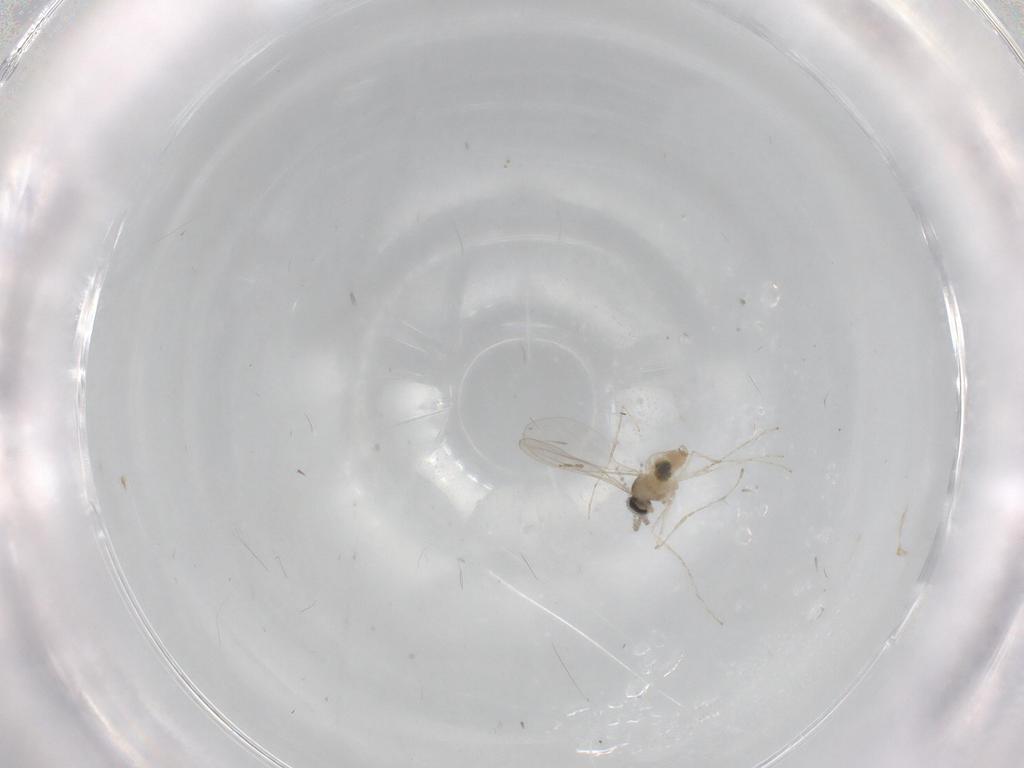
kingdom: Animalia
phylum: Arthropoda
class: Insecta
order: Diptera
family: Cecidomyiidae
